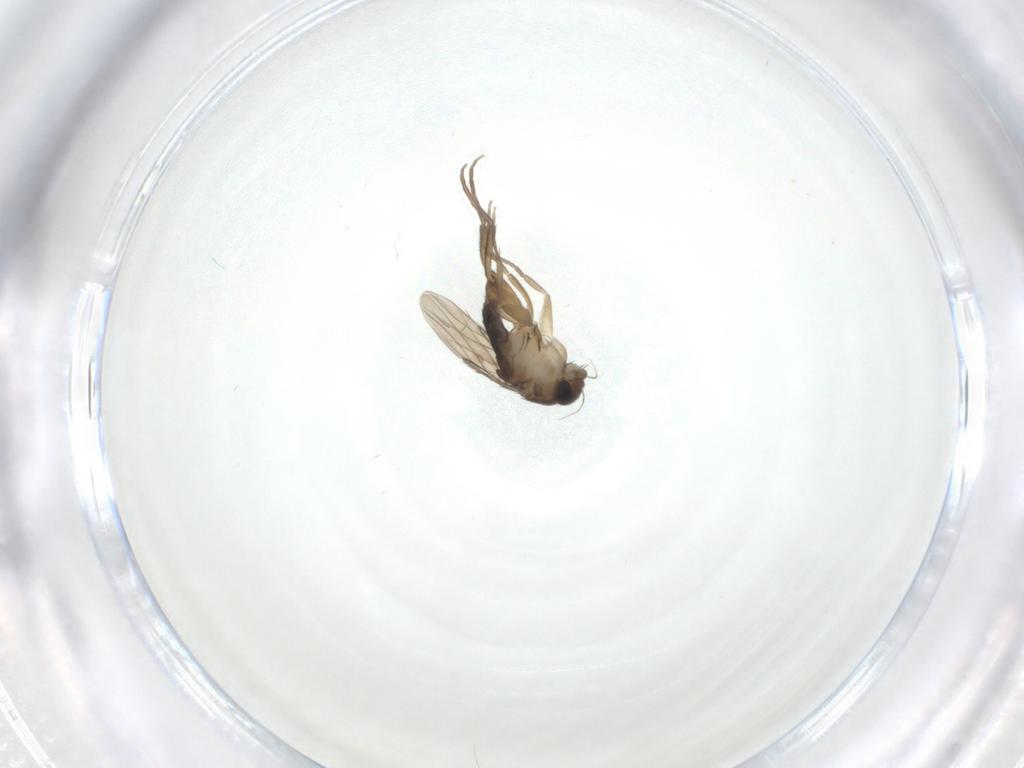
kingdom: Animalia
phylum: Arthropoda
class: Insecta
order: Diptera
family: Phoridae
